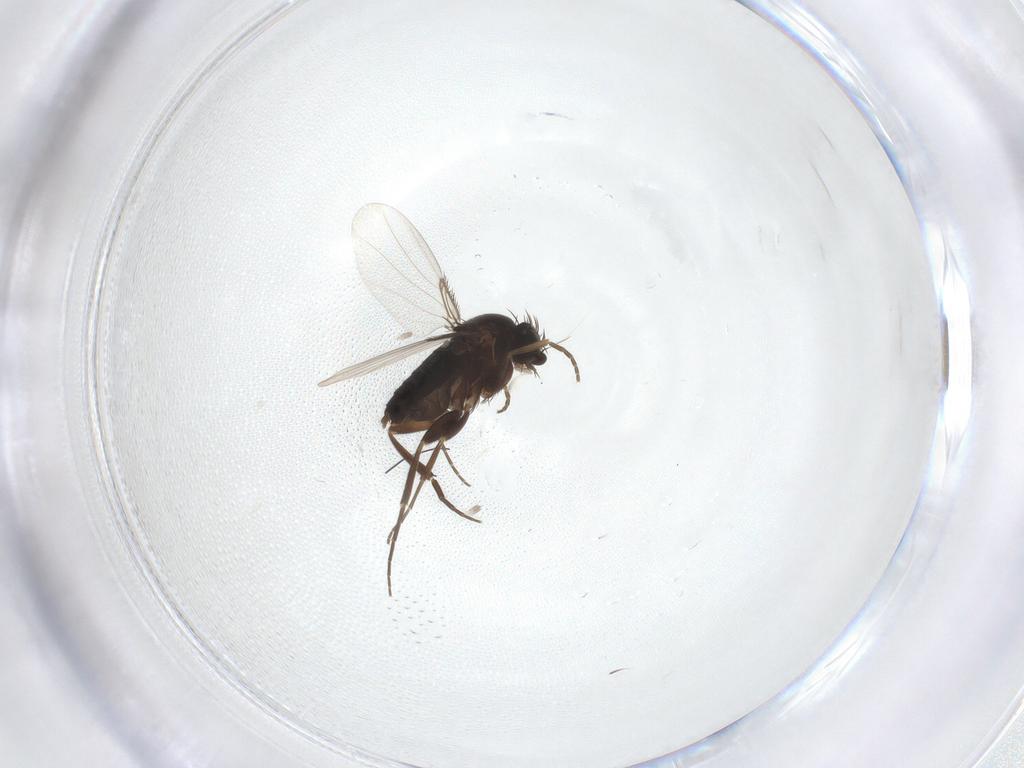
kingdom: Animalia
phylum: Arthropoda
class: Insecta
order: Diptera
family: Phoridae
